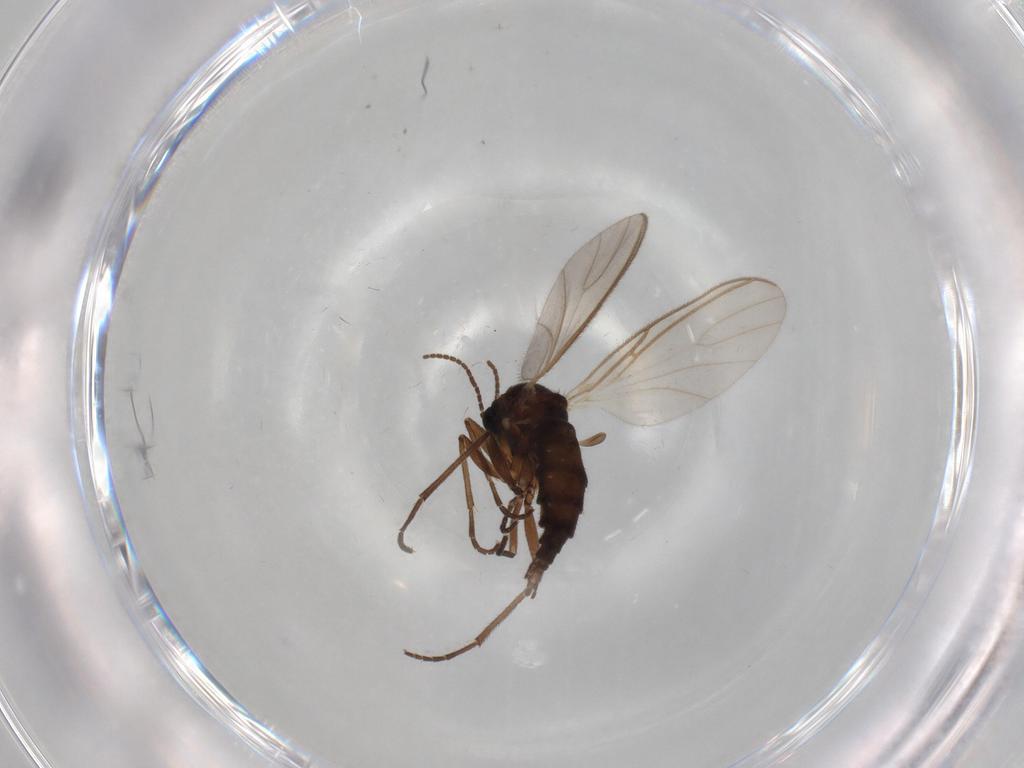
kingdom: Animalia
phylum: Arthropoda
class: Insecta
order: Diptera
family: Sciaridae
